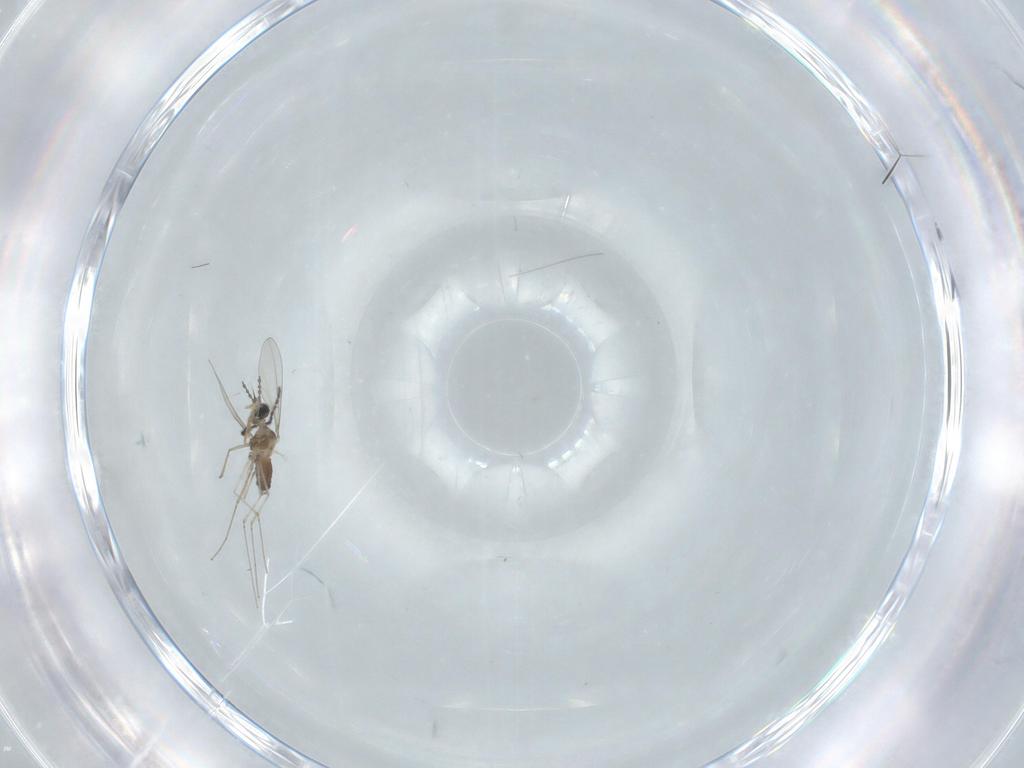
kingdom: Animalia
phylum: Arthropoda
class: Insecta
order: Diptera
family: Cecidomyiidae
